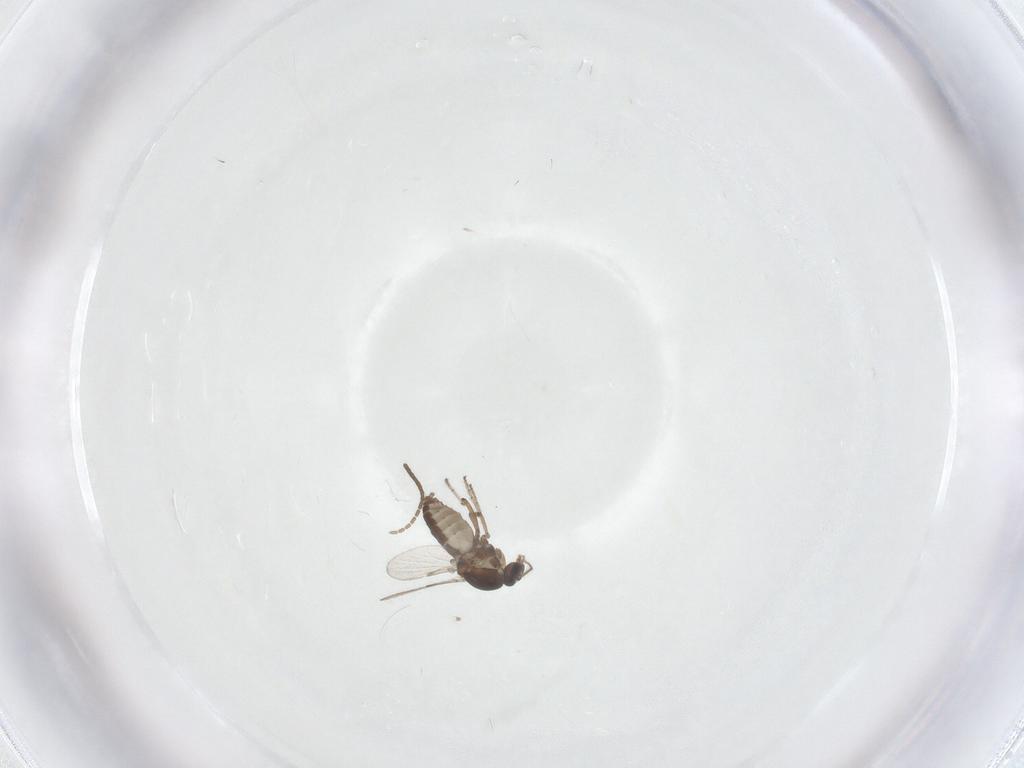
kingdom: Animalia
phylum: Arthropoda
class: Insecta
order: Diptera
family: Ceratopogonidae
